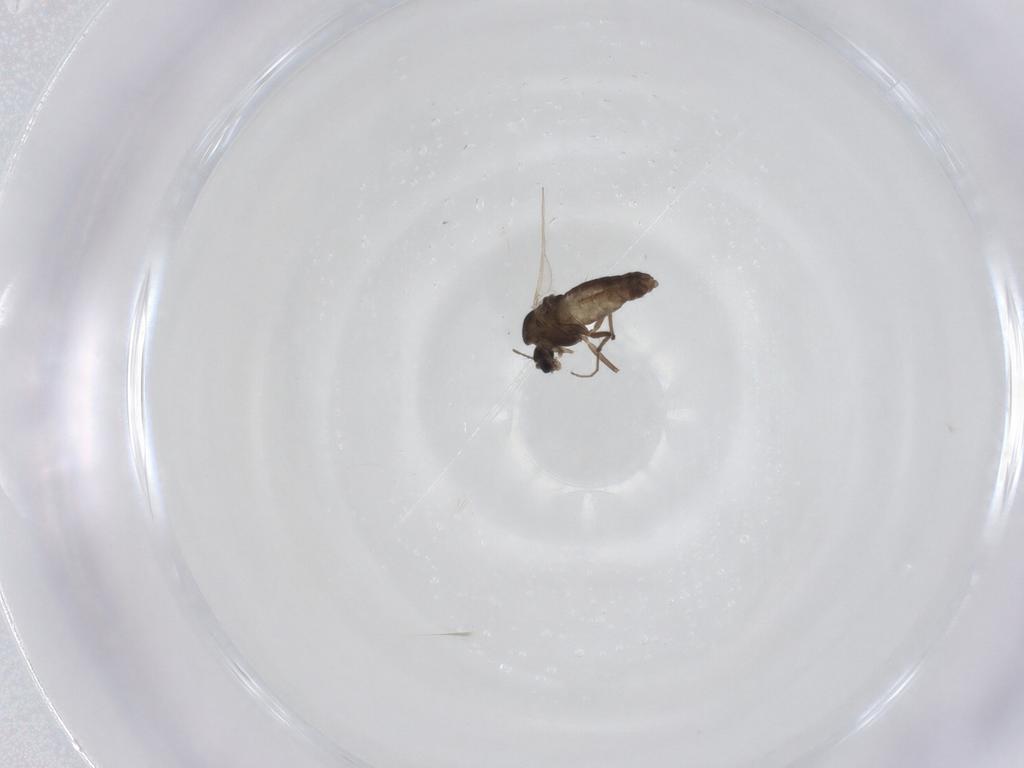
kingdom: Animalia
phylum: Arthropoda
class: Insecta
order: Diptera
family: Chironomidae
